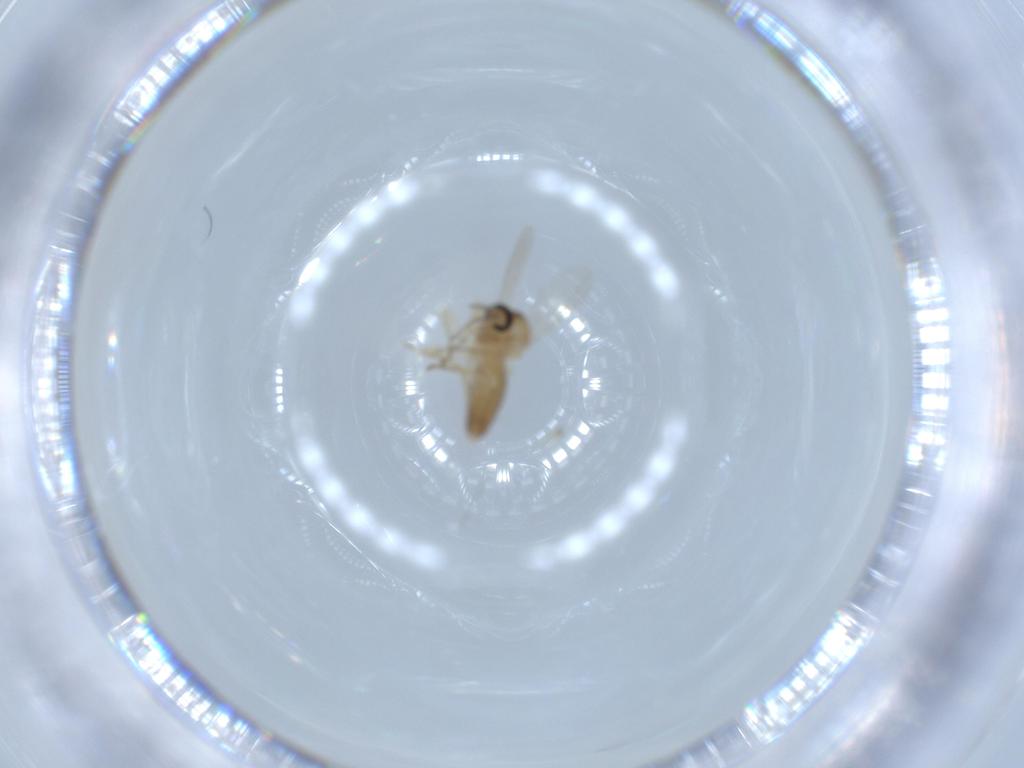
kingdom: Animalia
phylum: Arthropoda
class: Insecta
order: Diptera
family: Ceratopogonidae
